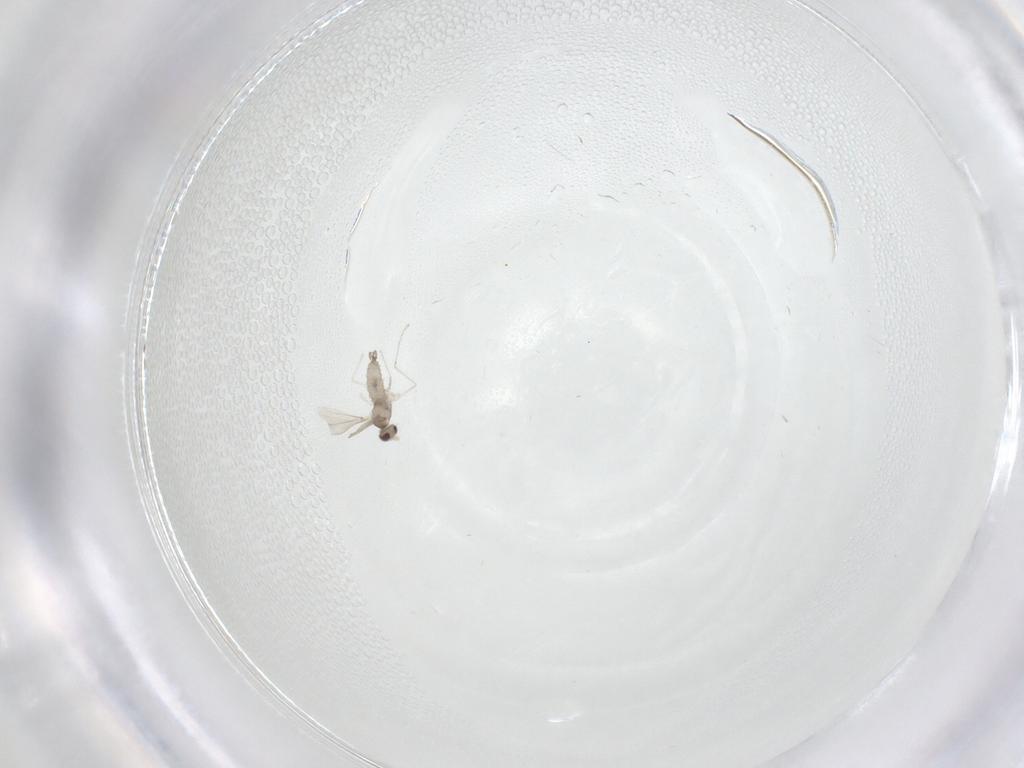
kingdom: Animalia
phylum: Arthropoda
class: Insecta
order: Diptera
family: Cecidomyiidae
